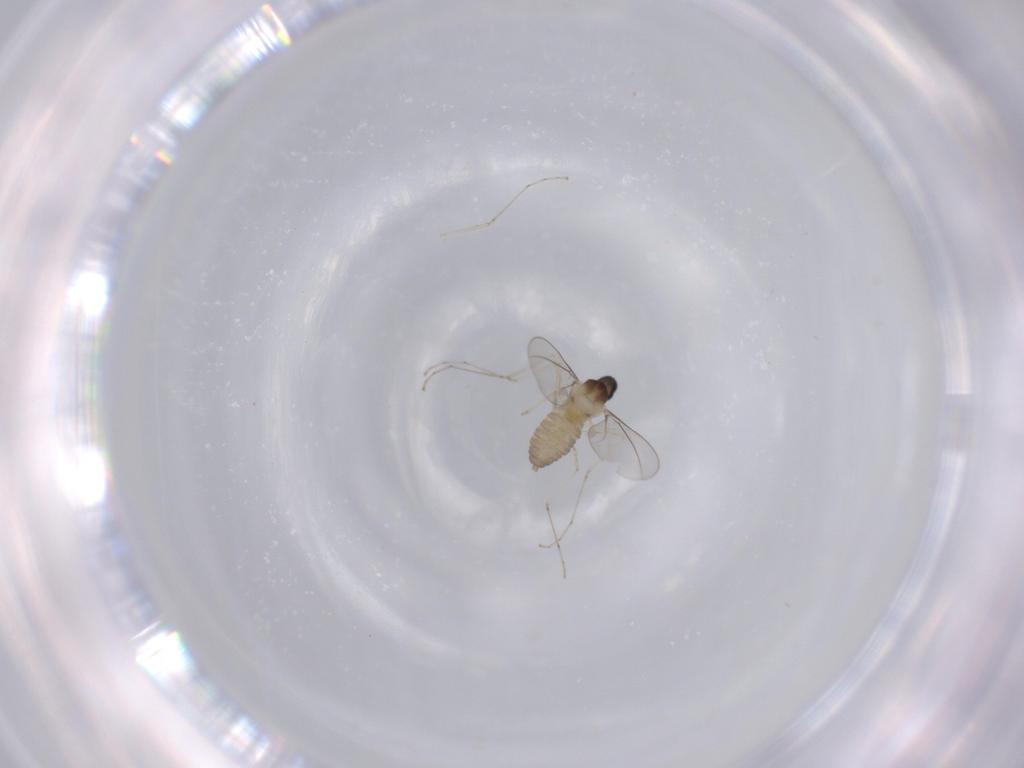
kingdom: Animalia
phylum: Arthropoda
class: Insecta
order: Diptera
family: Cecidomyiidae
